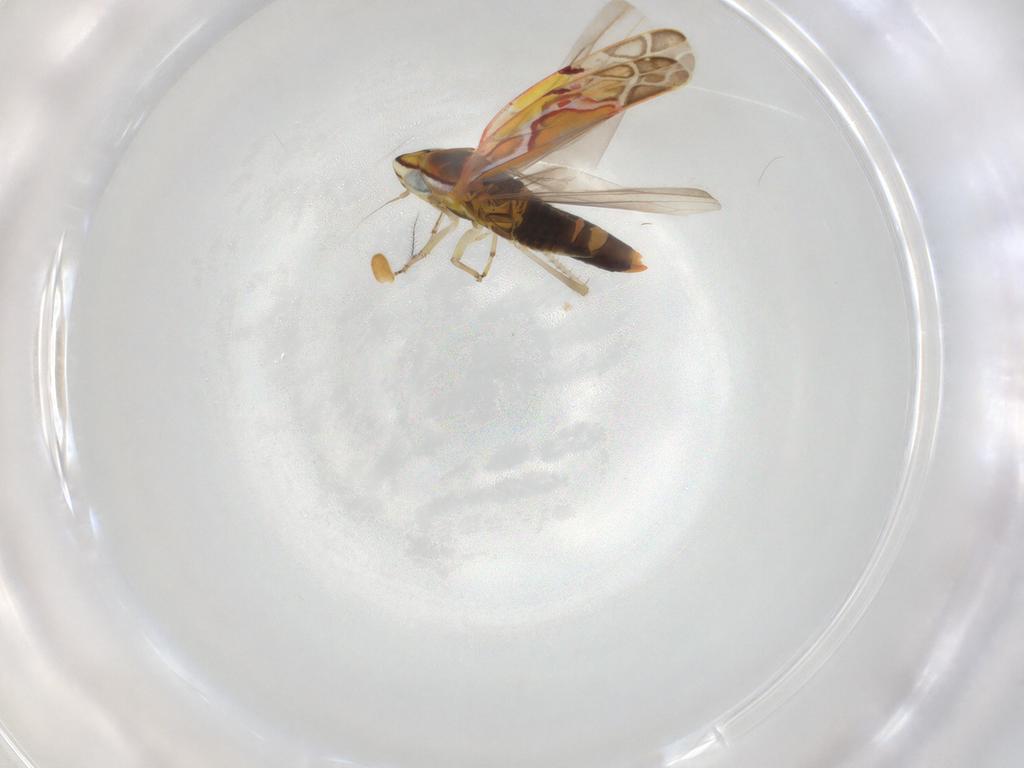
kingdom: Animalia
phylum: Arthropoda
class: Insecta
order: Hemiptera
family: Cicadellidae
